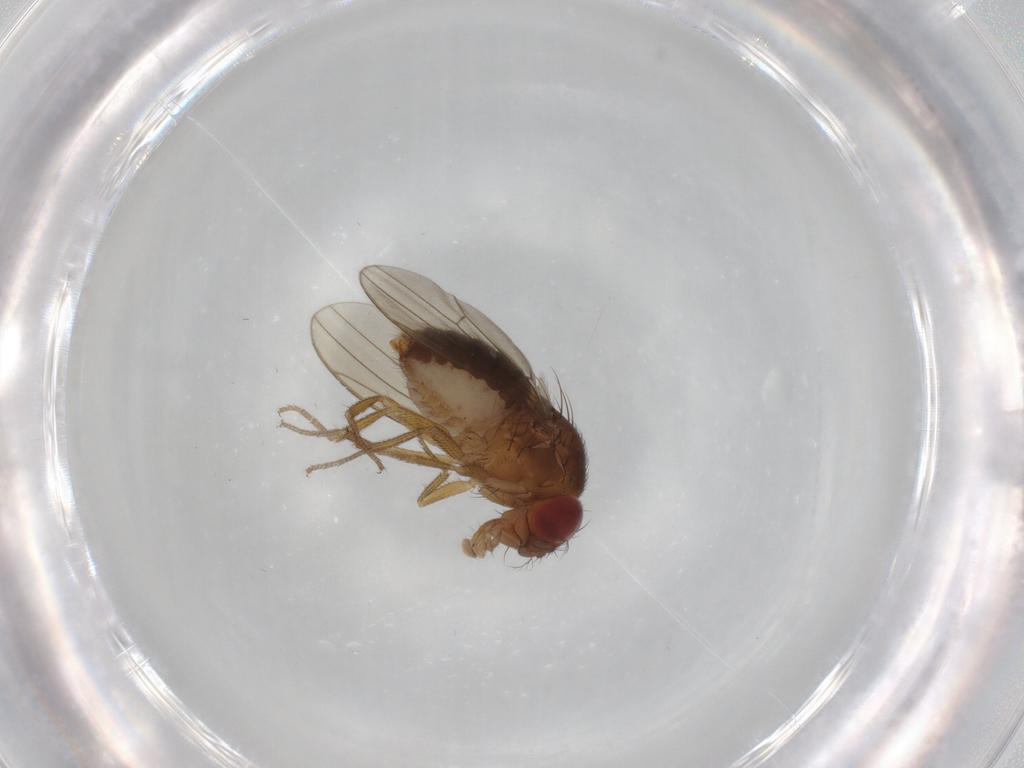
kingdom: Animalia
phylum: Arthropoda
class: Insecta
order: Diptera
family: Drosophilidae
